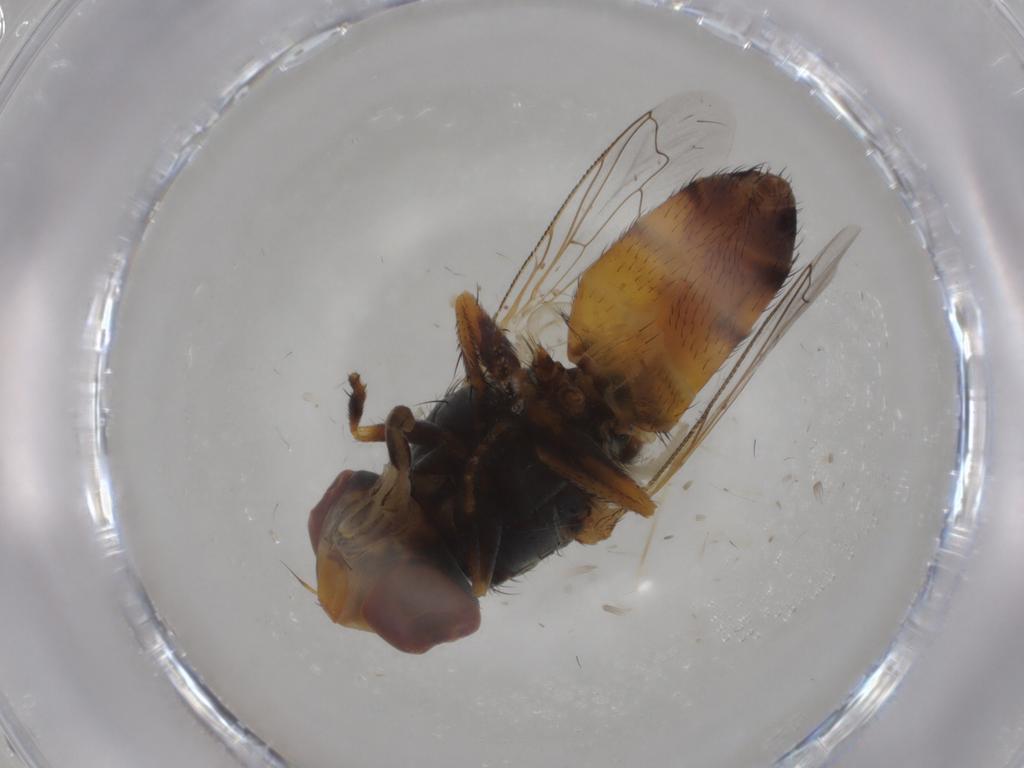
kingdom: Animalia
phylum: Arthropoda
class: Insecta
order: Diptera
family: Sarcophagidae
